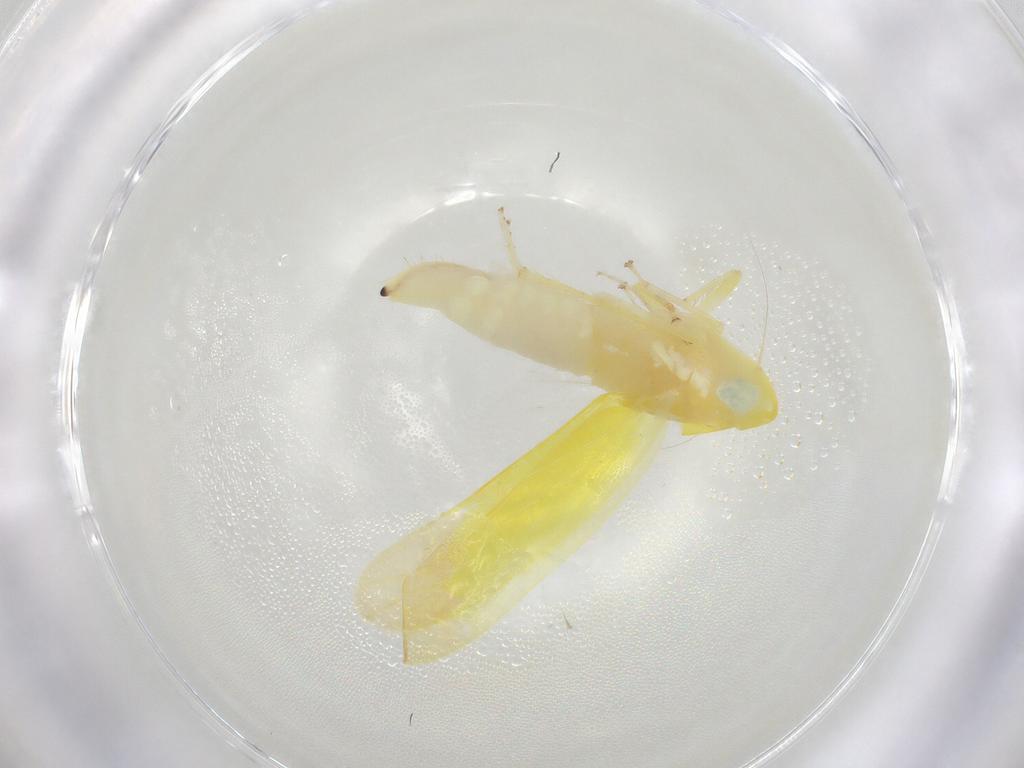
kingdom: Animalia
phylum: Arthropoda
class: Insecta
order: Hemiptera
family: Cicadellidae
